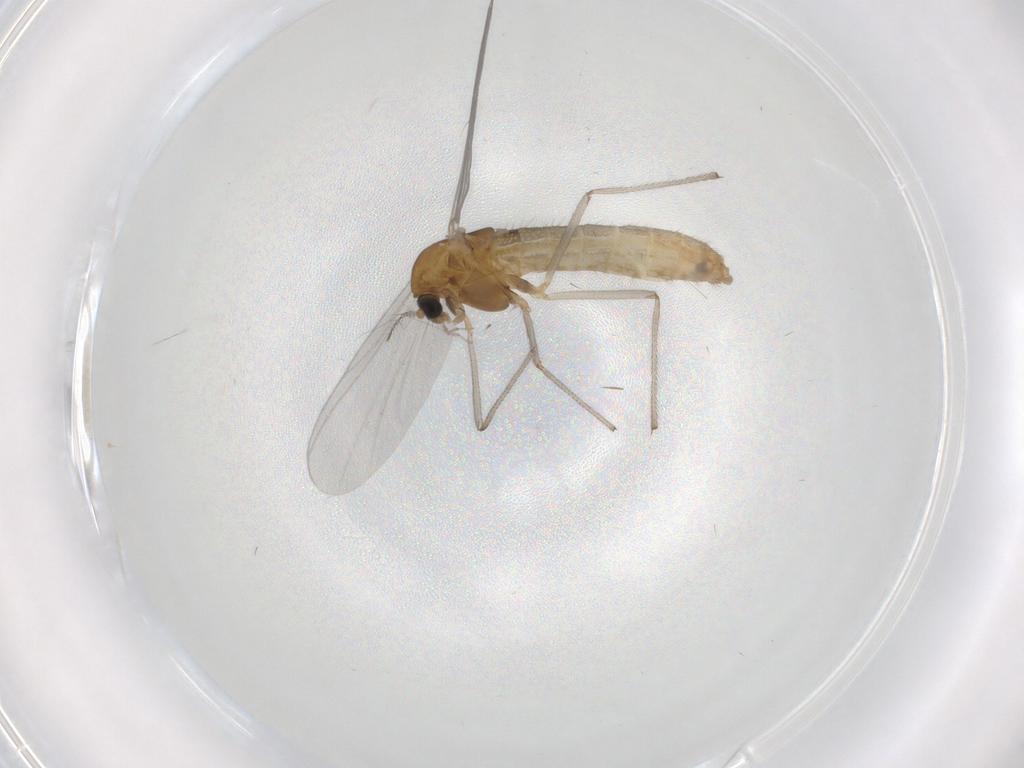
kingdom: Animalia
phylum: Arthropoda
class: Insecta
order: Diptera
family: Chironomidae
